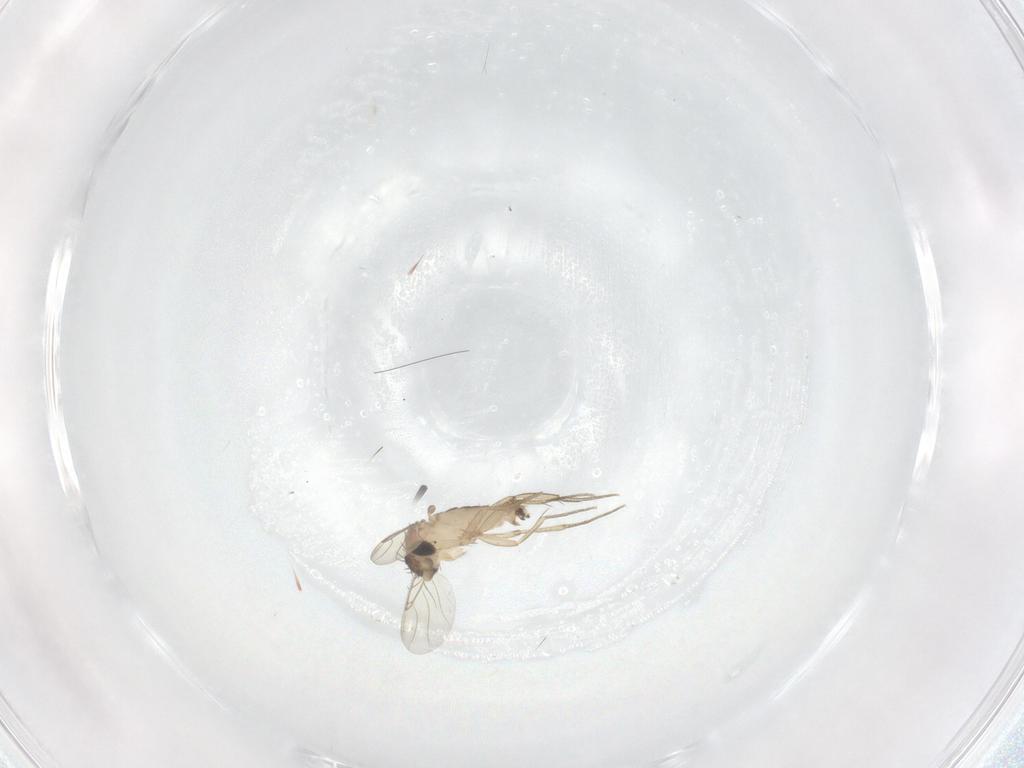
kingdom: Animalia
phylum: Arthropoda
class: Insecta
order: Diptera
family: Phoridae
